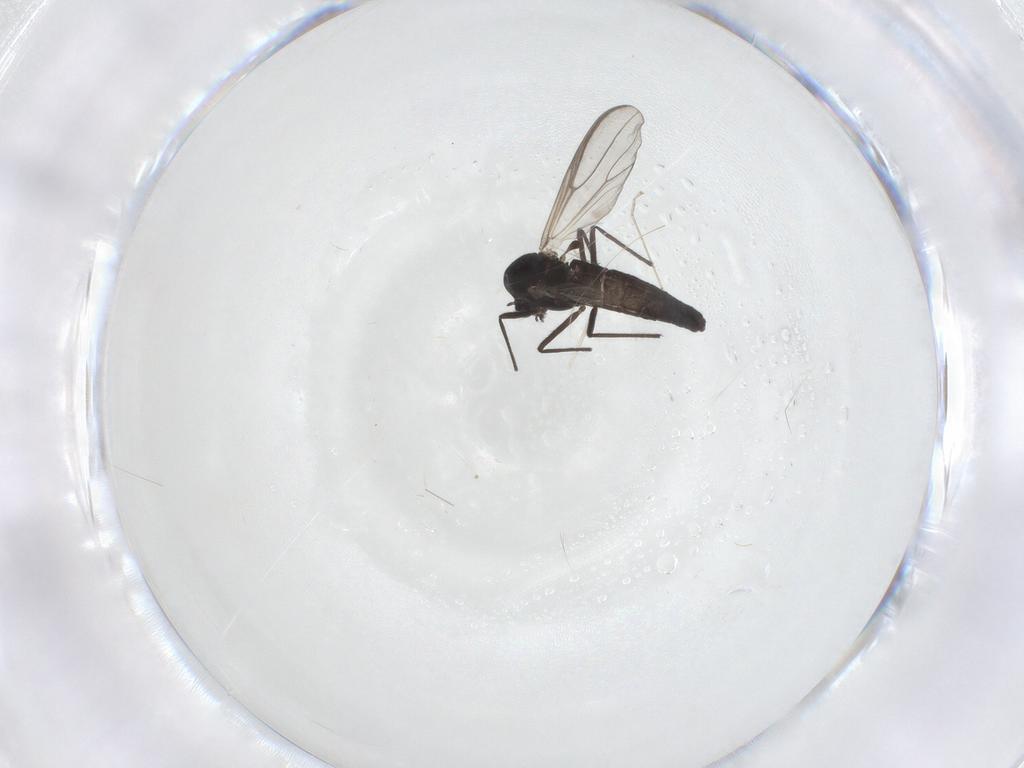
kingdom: Animalia
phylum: Arthropoda
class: Insecta
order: Diptera
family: Chironomidae
